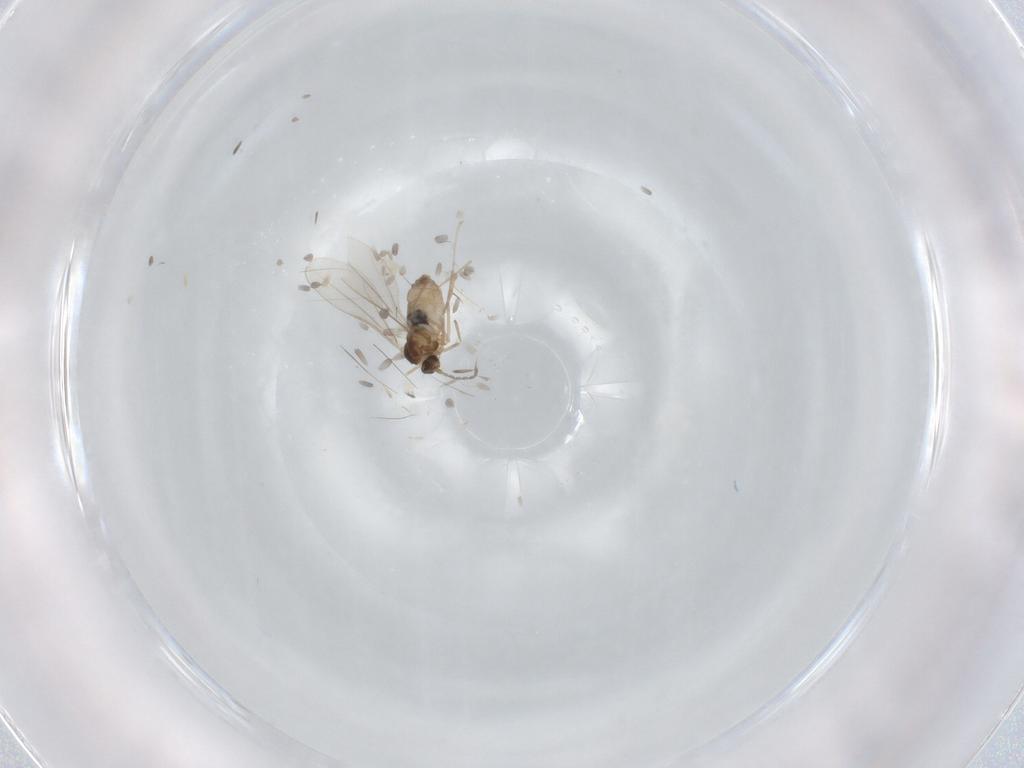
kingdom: Animalia
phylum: Arthropoda
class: Insecta
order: Diptera
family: Cecidomyiidae
